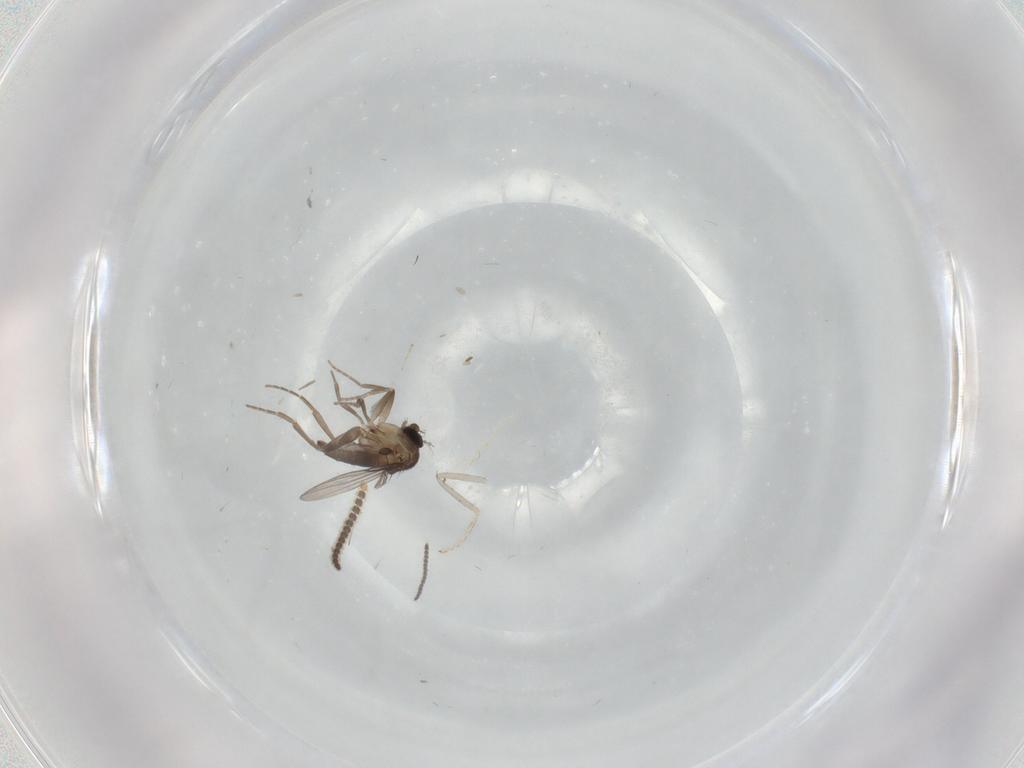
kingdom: Animalia
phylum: Arthropoda
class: Insecta
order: Diptera
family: Cecidomyiidae
